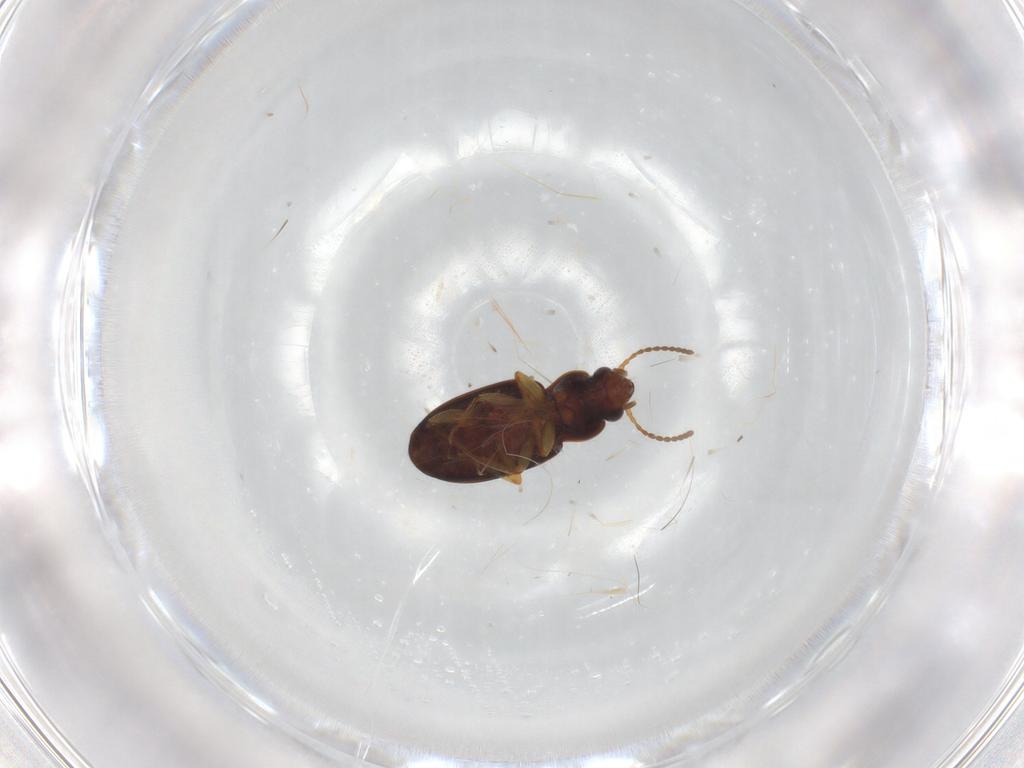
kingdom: Animalia
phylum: Arthropoda
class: Insecta
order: Coleoptera
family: Carabidae
